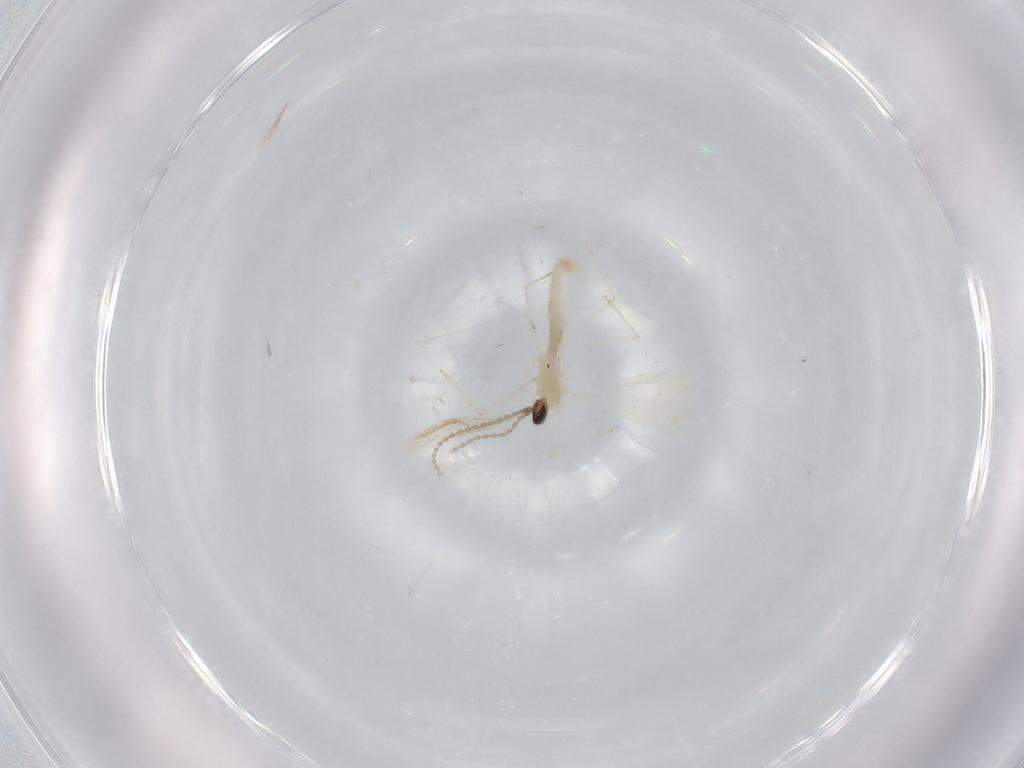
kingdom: Animalia
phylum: Arthropoda
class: Insecta
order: Diptera
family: Cecidomyiidae
